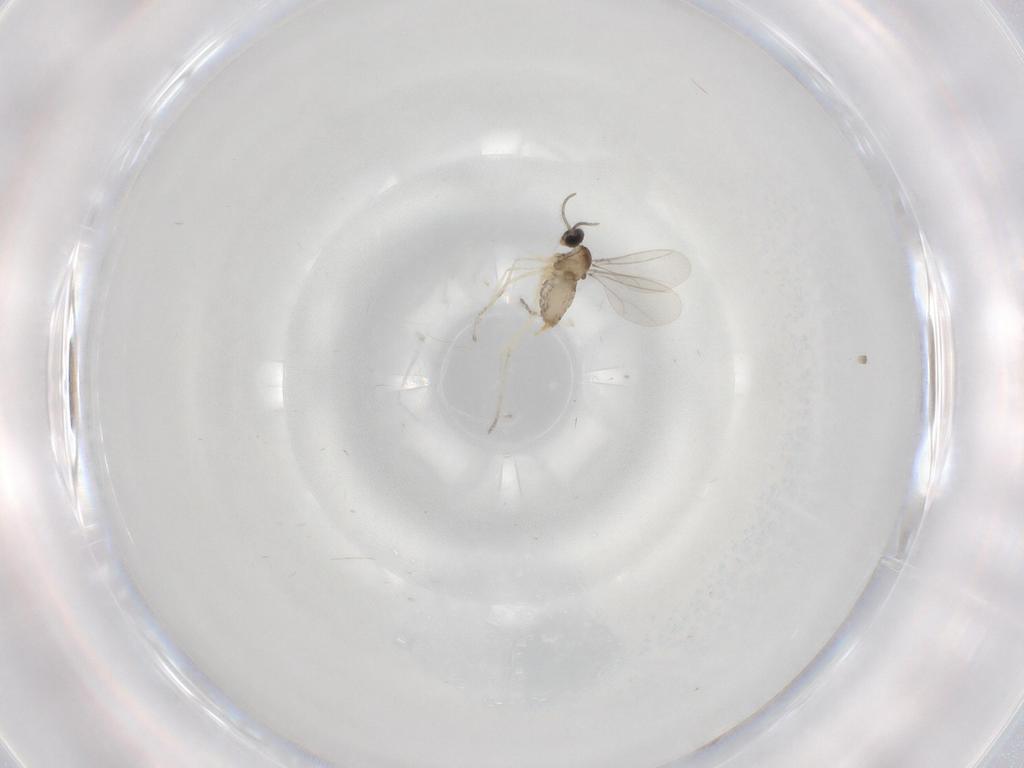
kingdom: Animalia
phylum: Arthropoda
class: Insecta
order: Diptera
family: Cecidomyiidae
